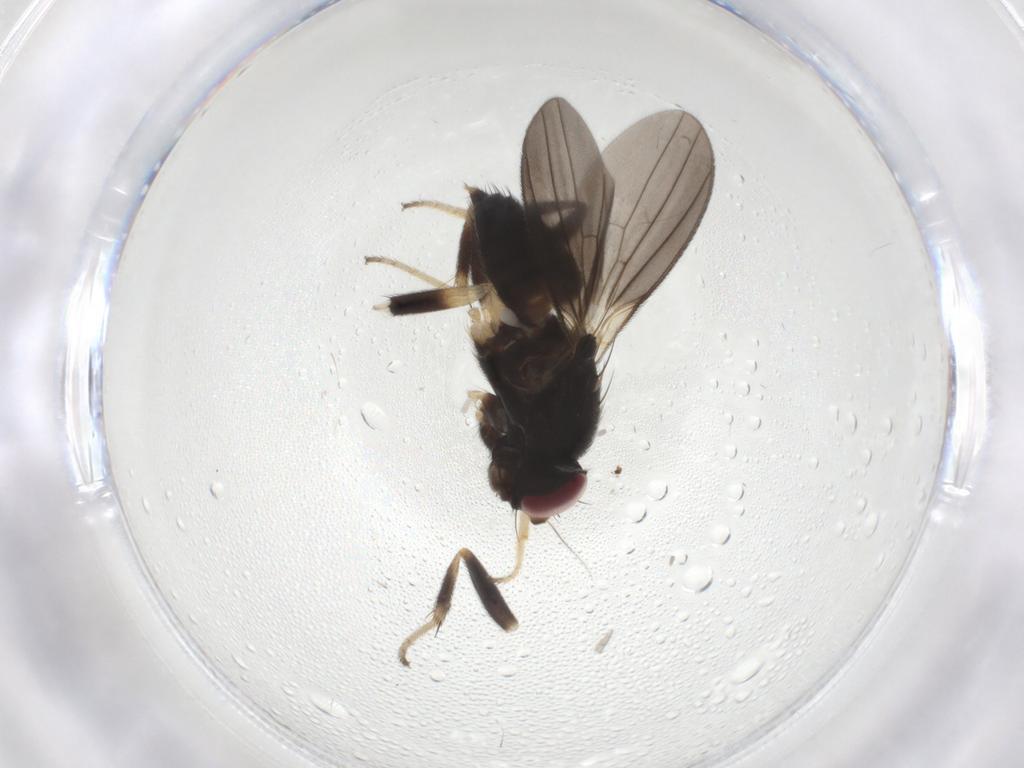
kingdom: Animalia
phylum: Arthropoda
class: Insecta
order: Diptera
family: Clusiidae
